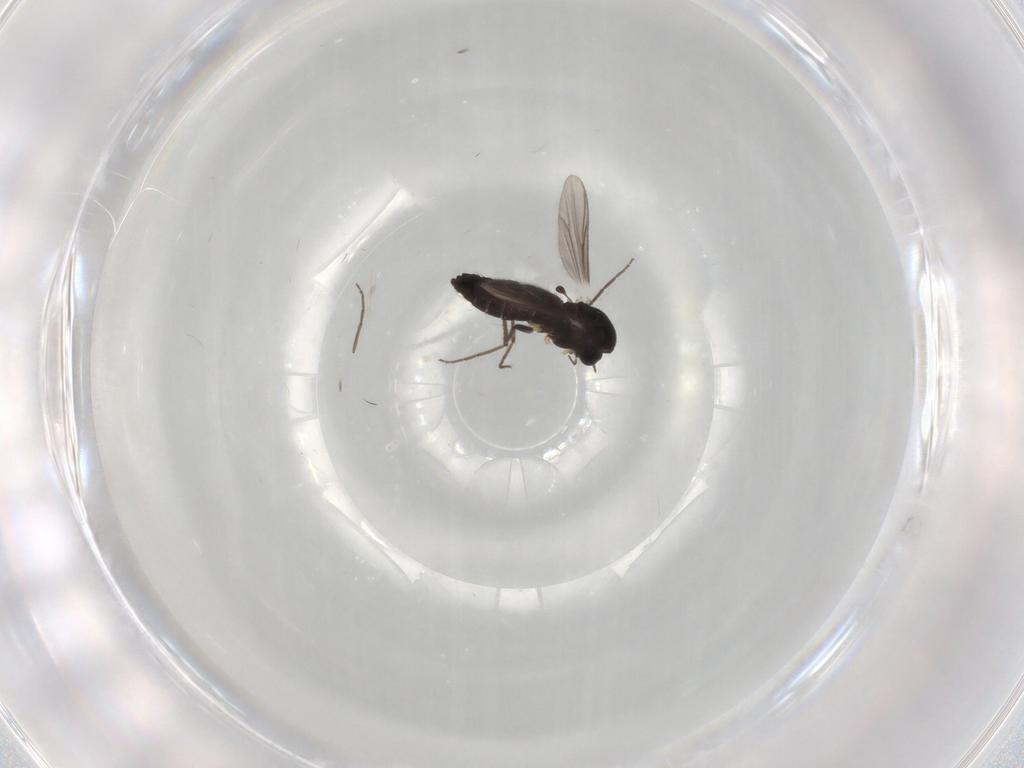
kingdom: Animalia
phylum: Arthropoda
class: Insecta
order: Diptera
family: Chironomidae
